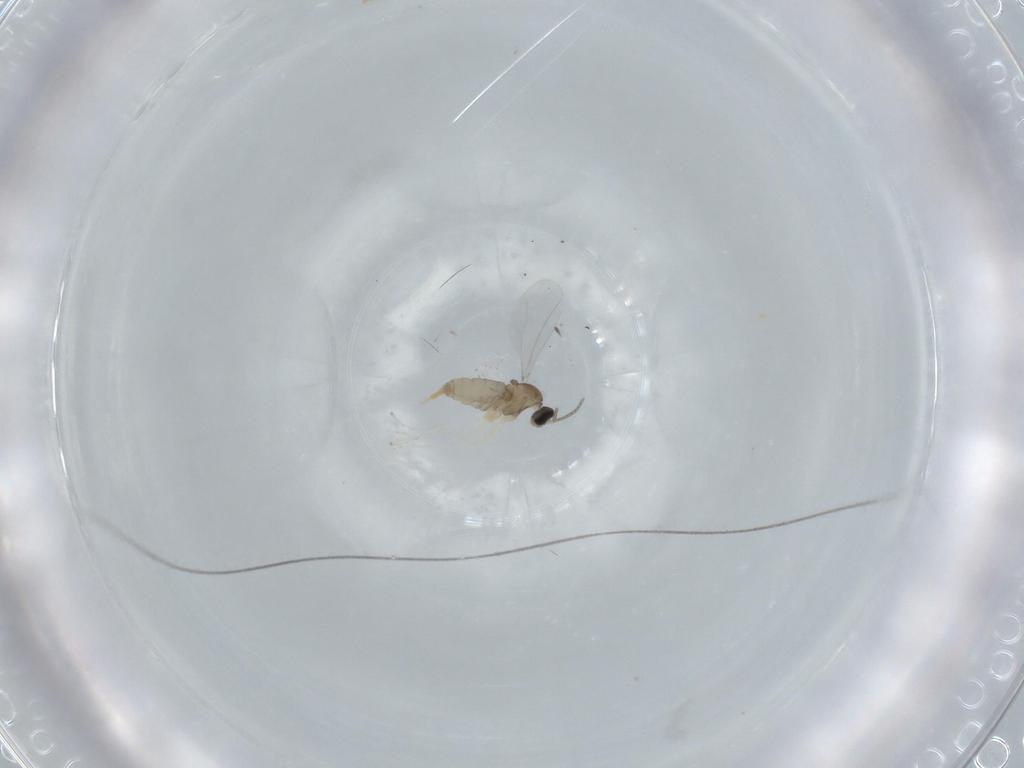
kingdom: Animalia
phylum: Arthropoda
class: Insecta
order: Diptera
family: Cecidomyiidae
